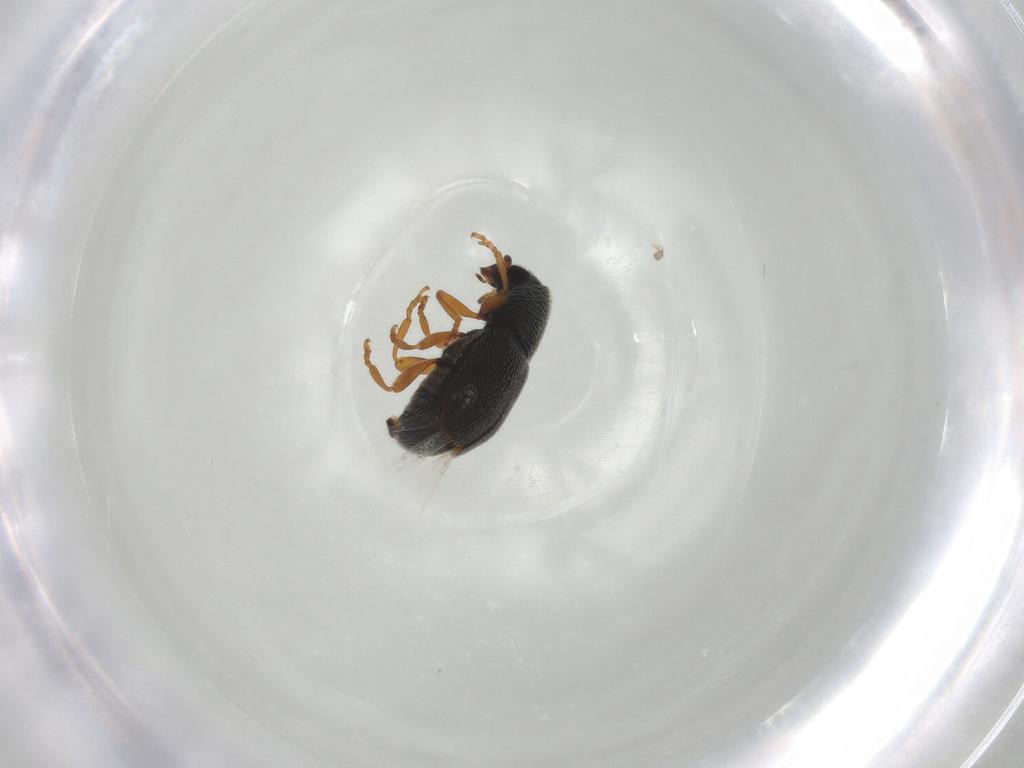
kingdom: Animalia
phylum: Arthropoda
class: Insecta
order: Coleoptera
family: Anthribidae
